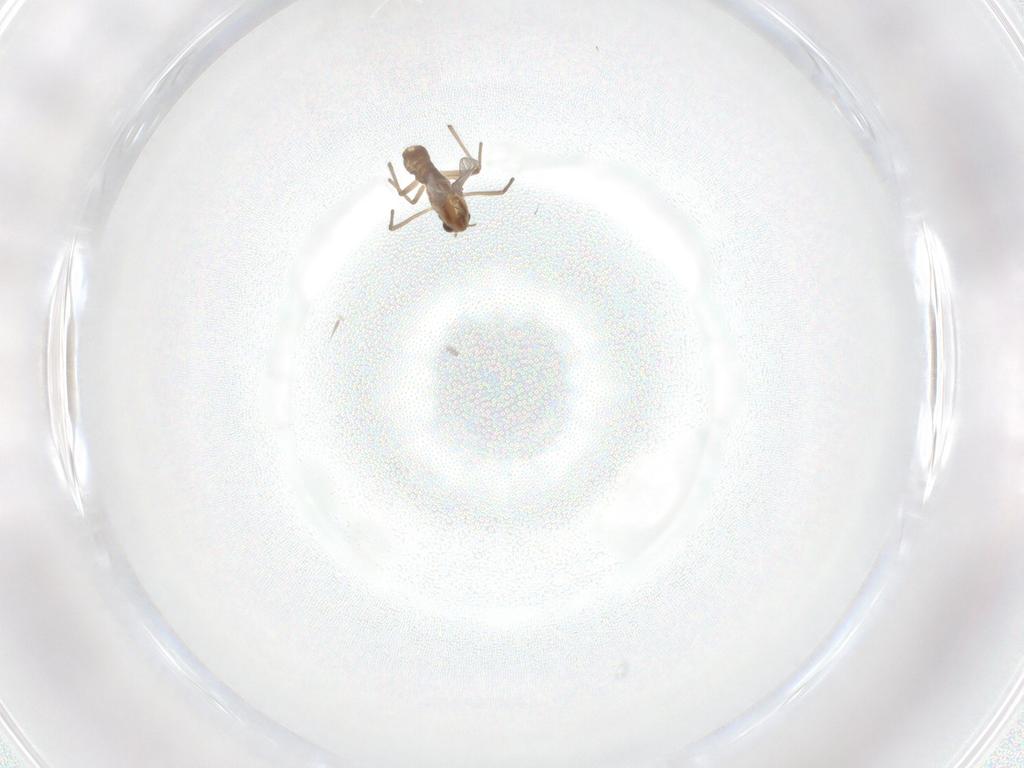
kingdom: Animalia
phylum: Arthropoda
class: Insecta
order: Diptera
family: Chironomidae
